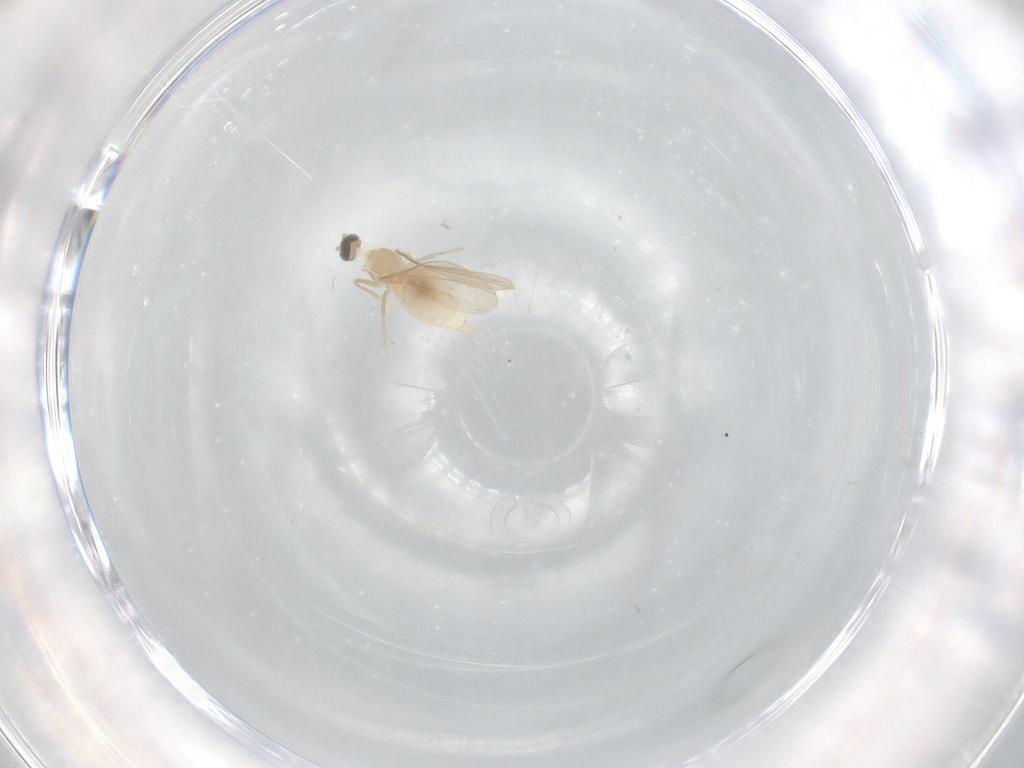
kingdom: Animalia
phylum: Arthropoda
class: Insecta
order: Diptera
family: Cecidomyiidae
